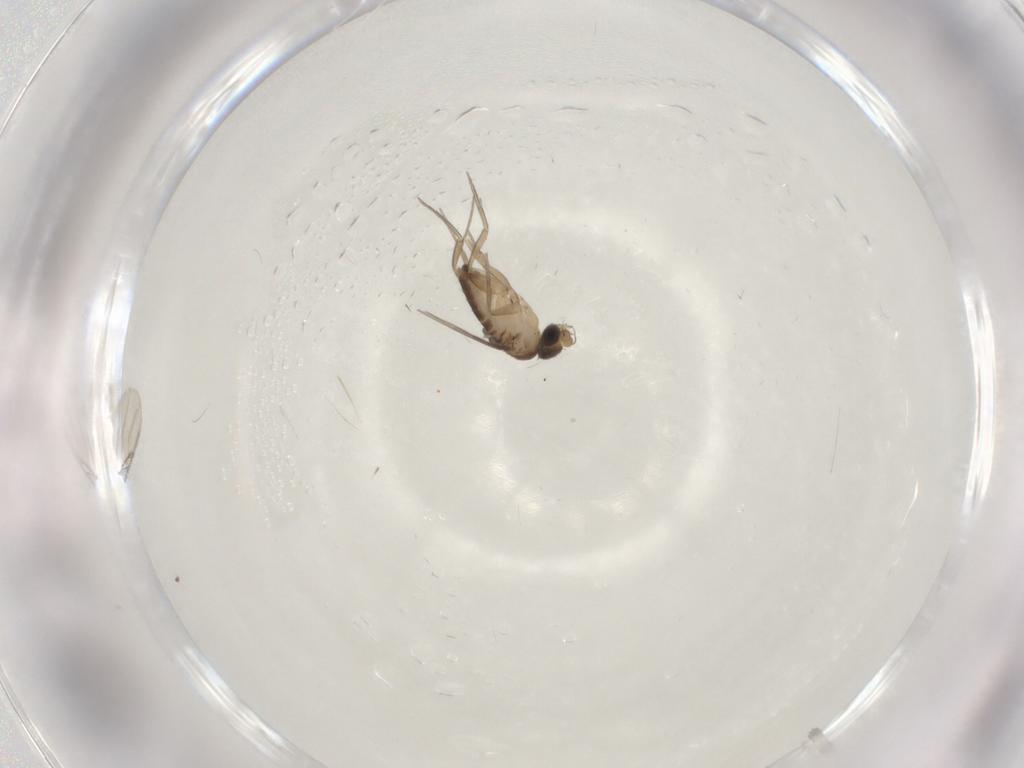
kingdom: Animalia
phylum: Arthropoda
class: Insecta
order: Diptera
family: Phoridae
